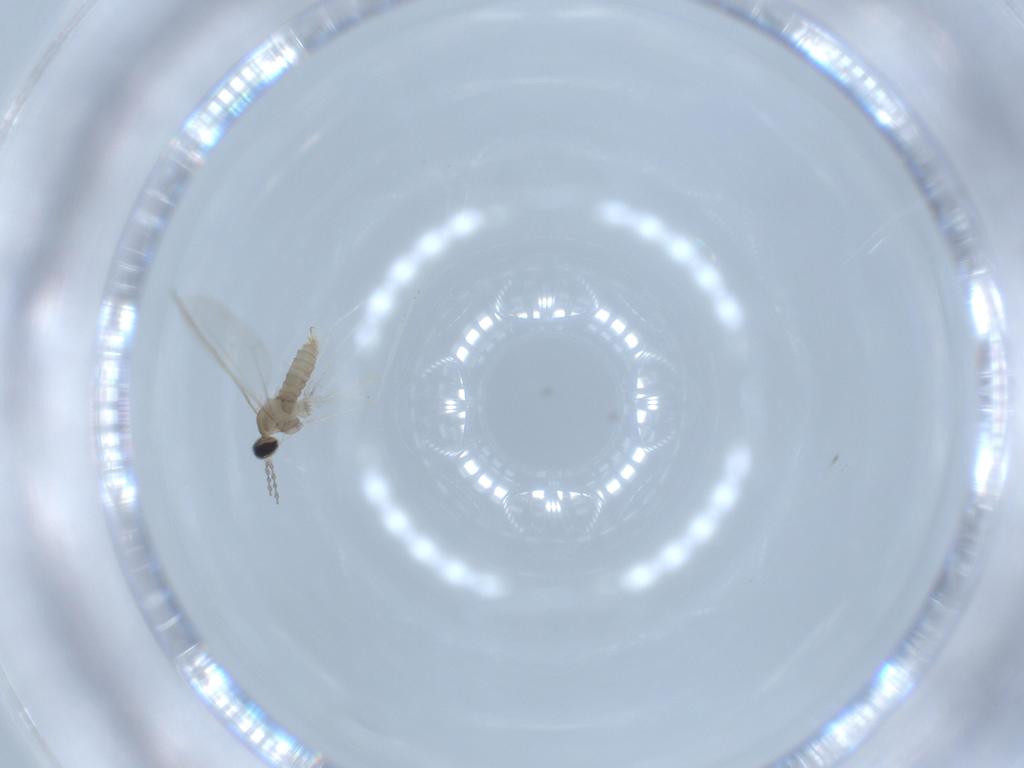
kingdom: Animalia
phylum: Arthropoda
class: Insecta
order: Diptera
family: Cecidomyiidae
